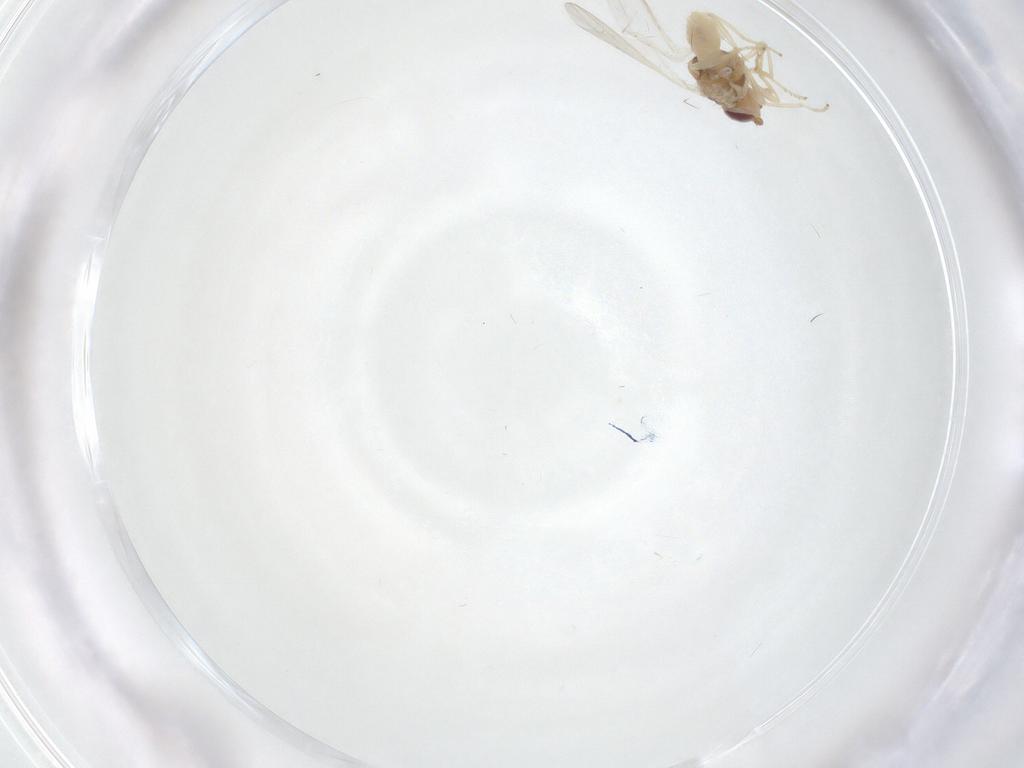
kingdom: Animalia
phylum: Arthropoda
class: Insecta
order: Diptera
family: Chloropidae
